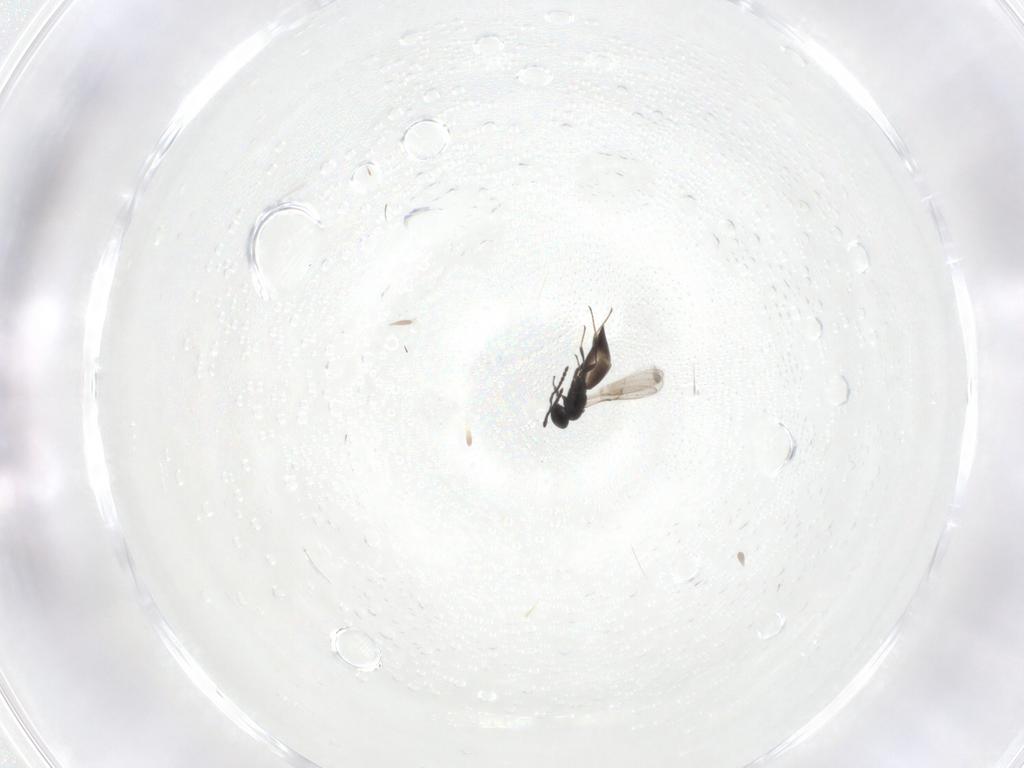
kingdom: Animalia
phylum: Arthropoda
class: Insecta
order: Hymenoptera
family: Scelionidae
